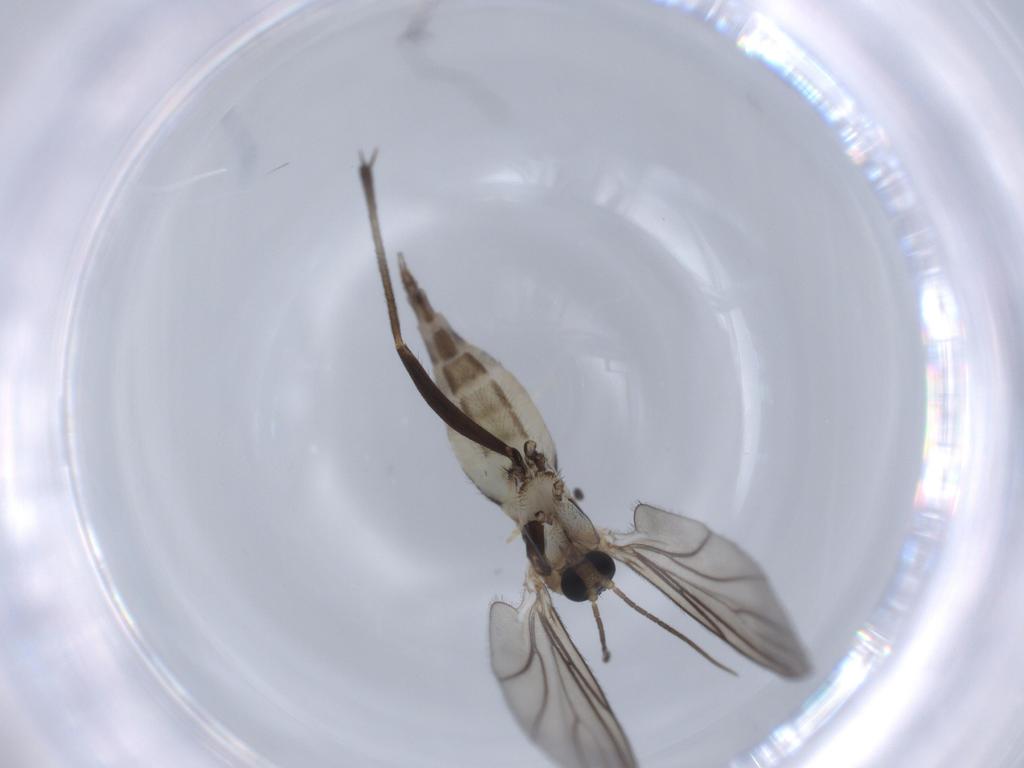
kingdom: Animalia
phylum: Arthropoda
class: Insecta
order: Diptera
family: Sciaridae
